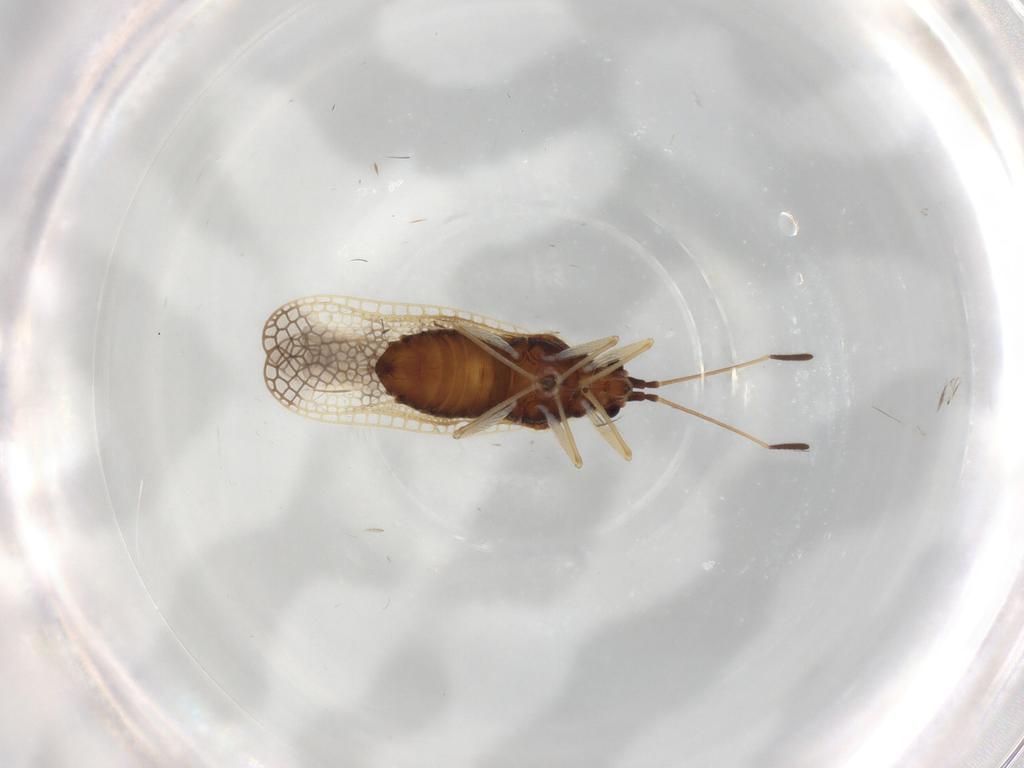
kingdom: Animalia
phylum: Arthropoda
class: Insecta
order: Hemiptera
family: Tingidae
